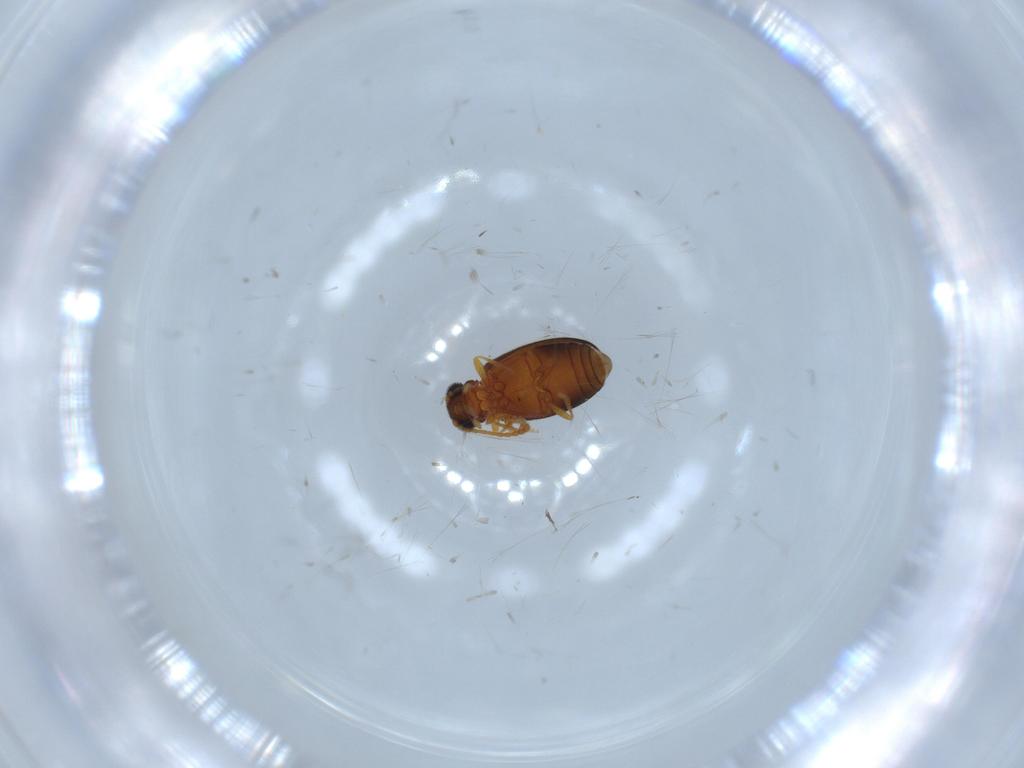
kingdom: Animalia
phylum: Arthropoda
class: Insecta
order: Coleoptera
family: Aderidae
